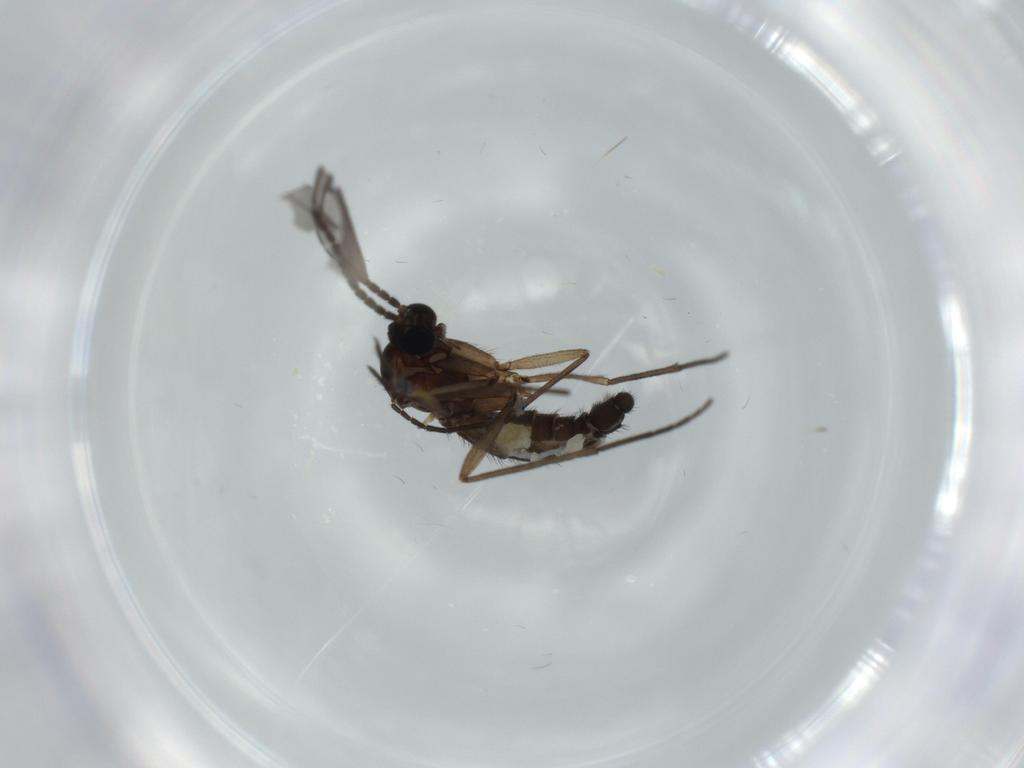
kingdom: Animalia
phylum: Arthropoda
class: Insecta
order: Diptera
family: Sciaridae
